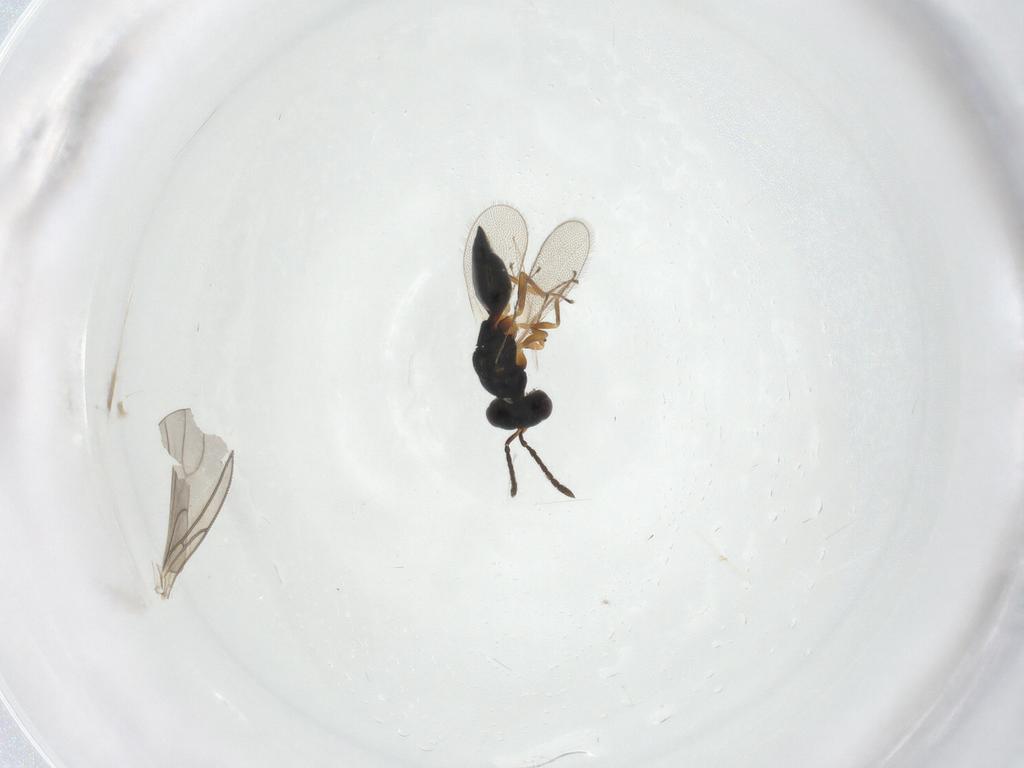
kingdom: Animalia
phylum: Arthropoda
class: Insecta
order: Hymenoptera
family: Pteromalidae
